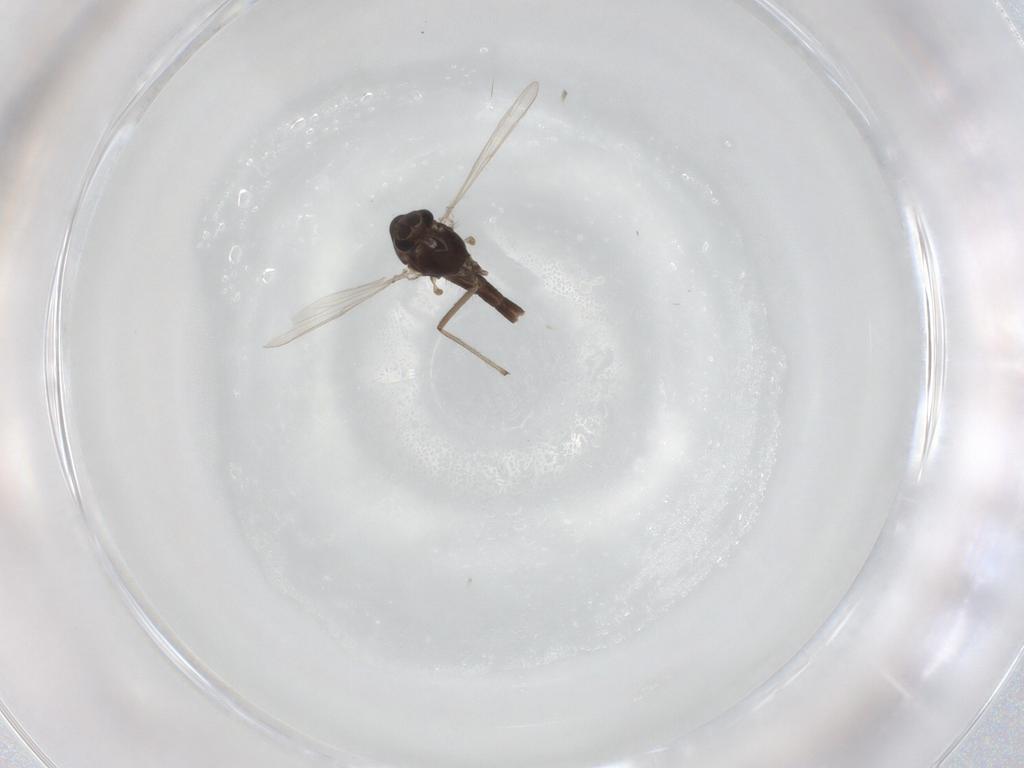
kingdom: Animalia
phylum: Arthropoda
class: Insecta
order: Diptera
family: Chironomidae
